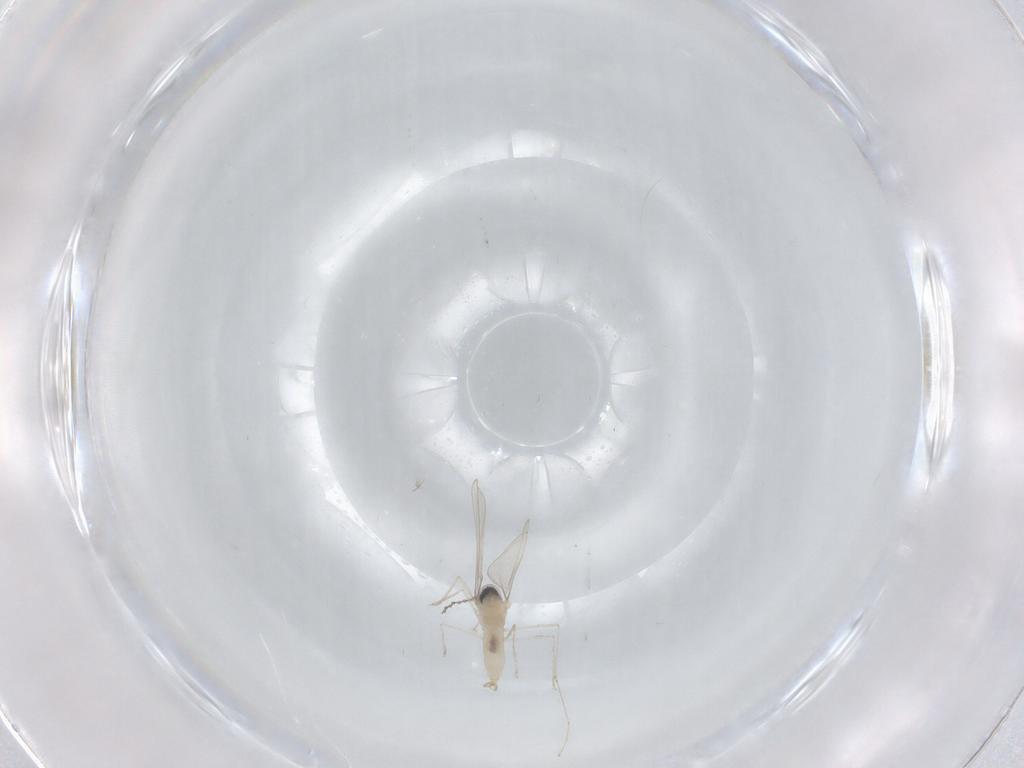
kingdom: Animalia
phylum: Arthropoda
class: Insecta
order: Diptera
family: Cecidomyiidae
